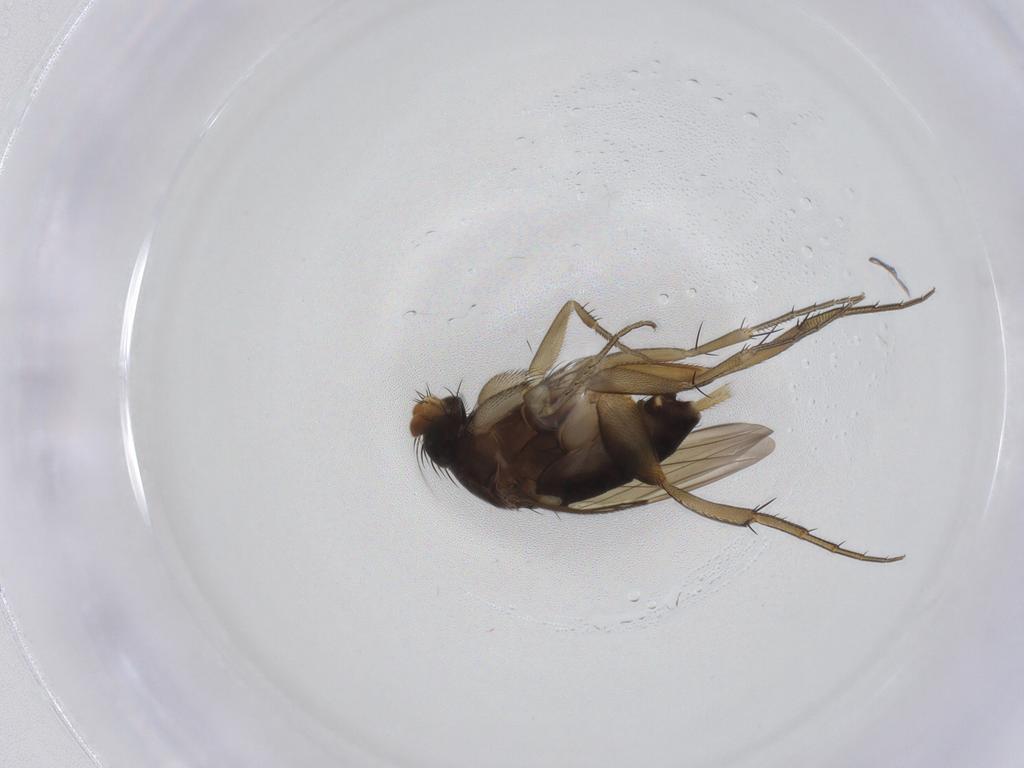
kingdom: Animalia
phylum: Arthropoda
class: Insecta
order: Diptera
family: Phoridae
